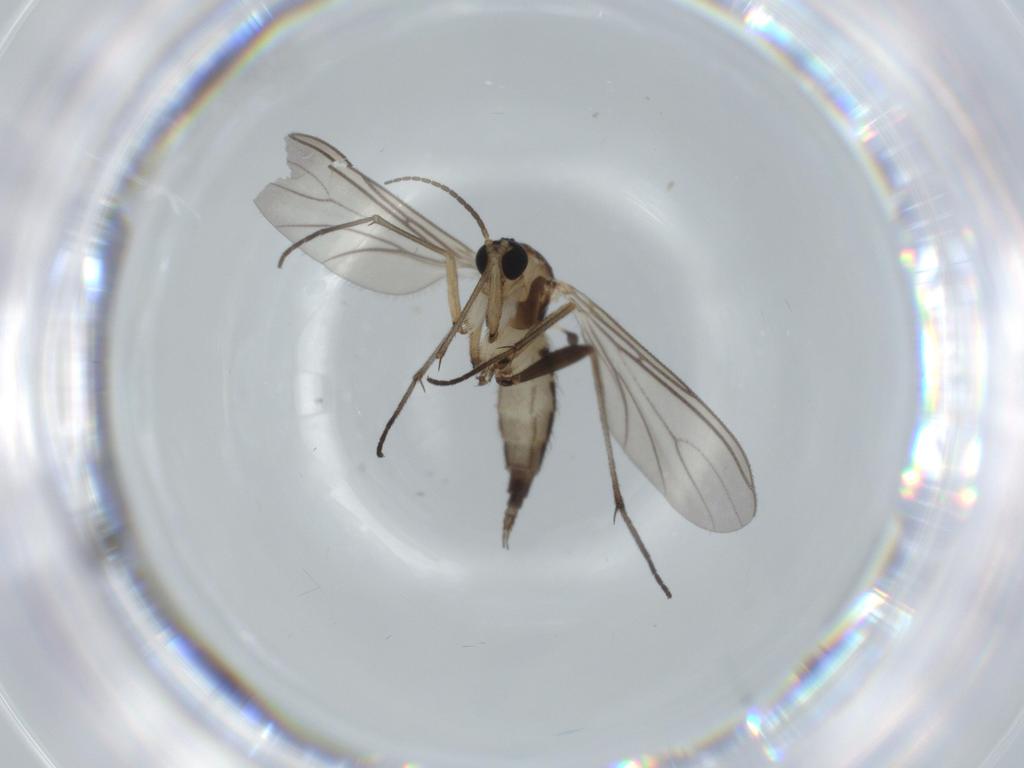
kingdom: Animalia
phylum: Arthropoda
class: Insecta
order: Diptera
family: Sciaridae
